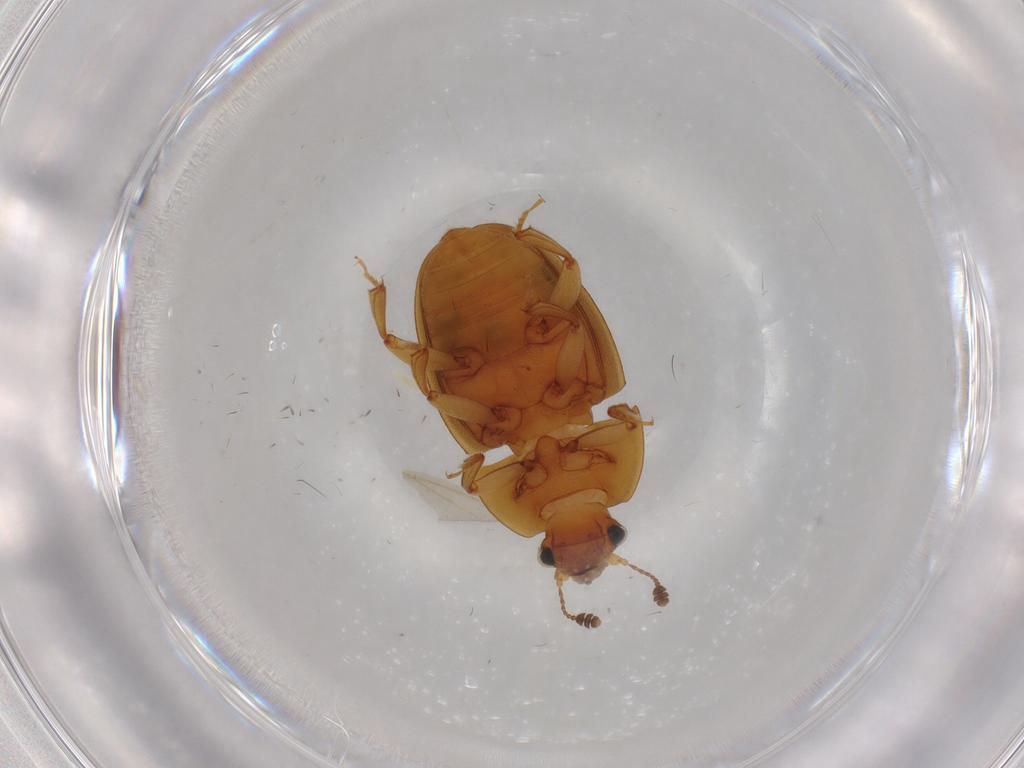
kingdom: Animalia
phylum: Arthropoda
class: Insecta
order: Coleoptera
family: Nitidulidae
